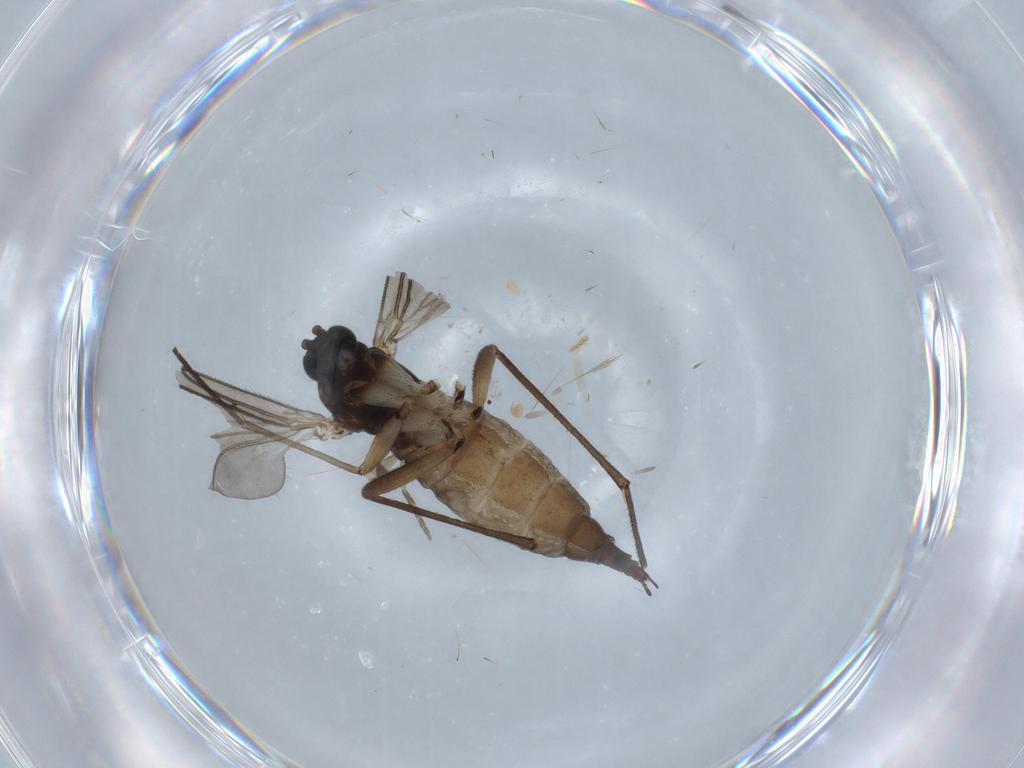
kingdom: Animalia
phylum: Arthropoda
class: Insecta
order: Diptera
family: Sciaridae
